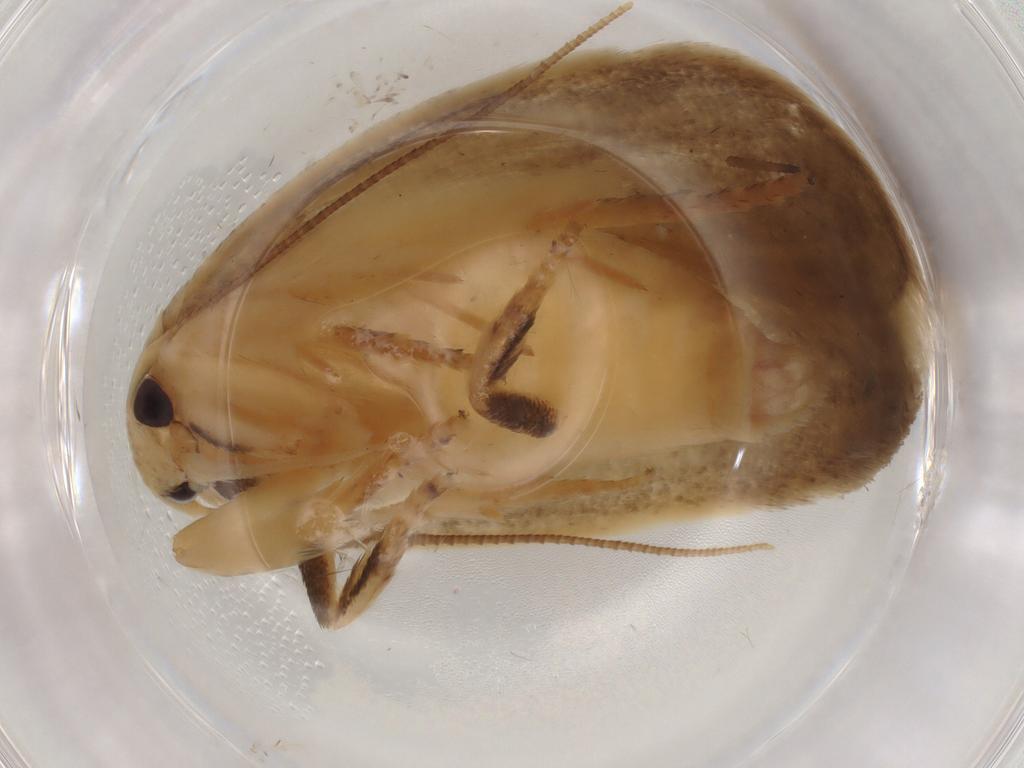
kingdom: Animalia
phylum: Arthropoda
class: Insecta
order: Lepidoptera
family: Depressariidae
